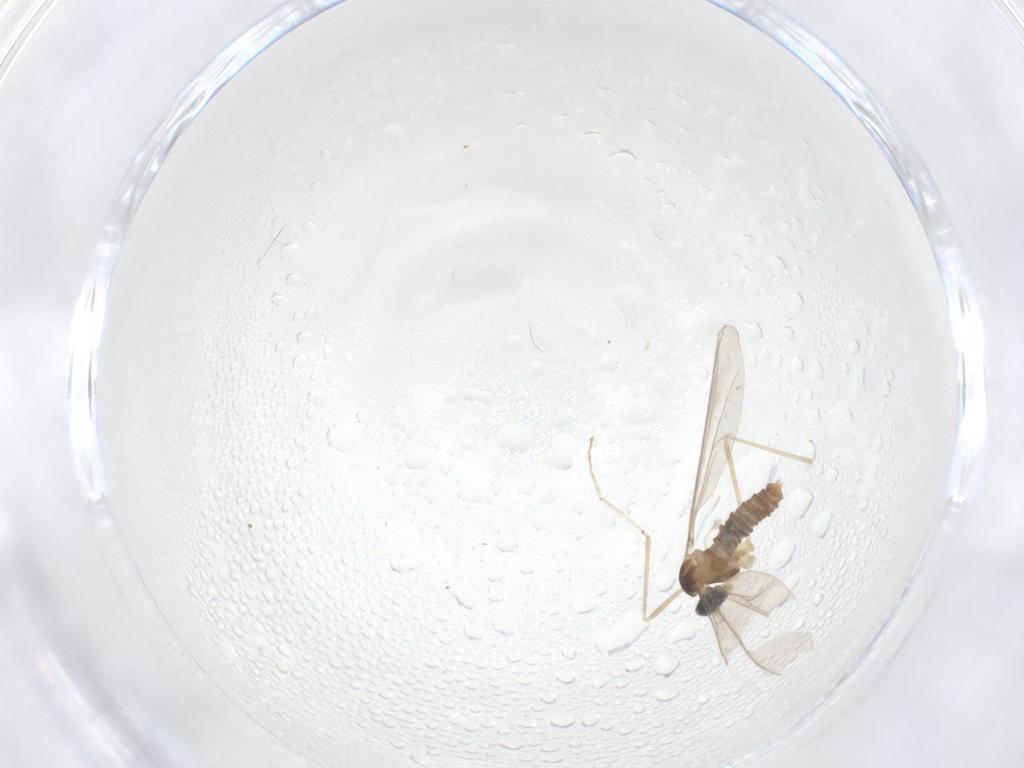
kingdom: Animalia
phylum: Arthropoda
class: Insecta
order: Diptera
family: Cecidomyiidae
